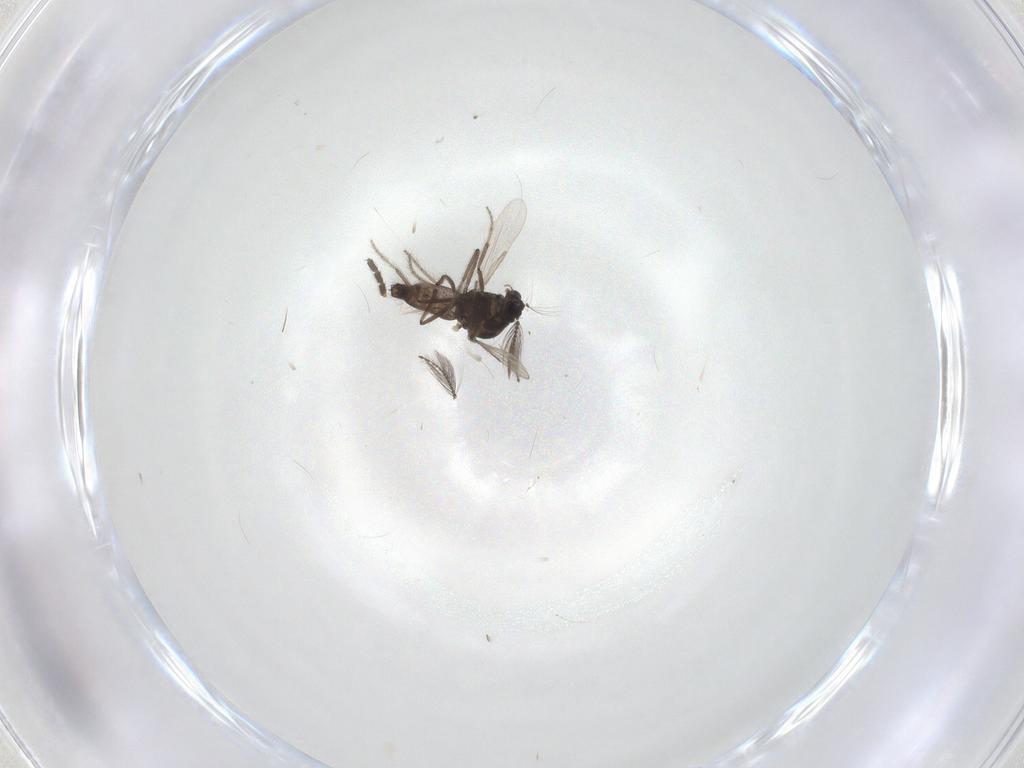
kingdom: Animalia
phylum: Arthropoda
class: Insecta
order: Diptera
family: Sciaridae
